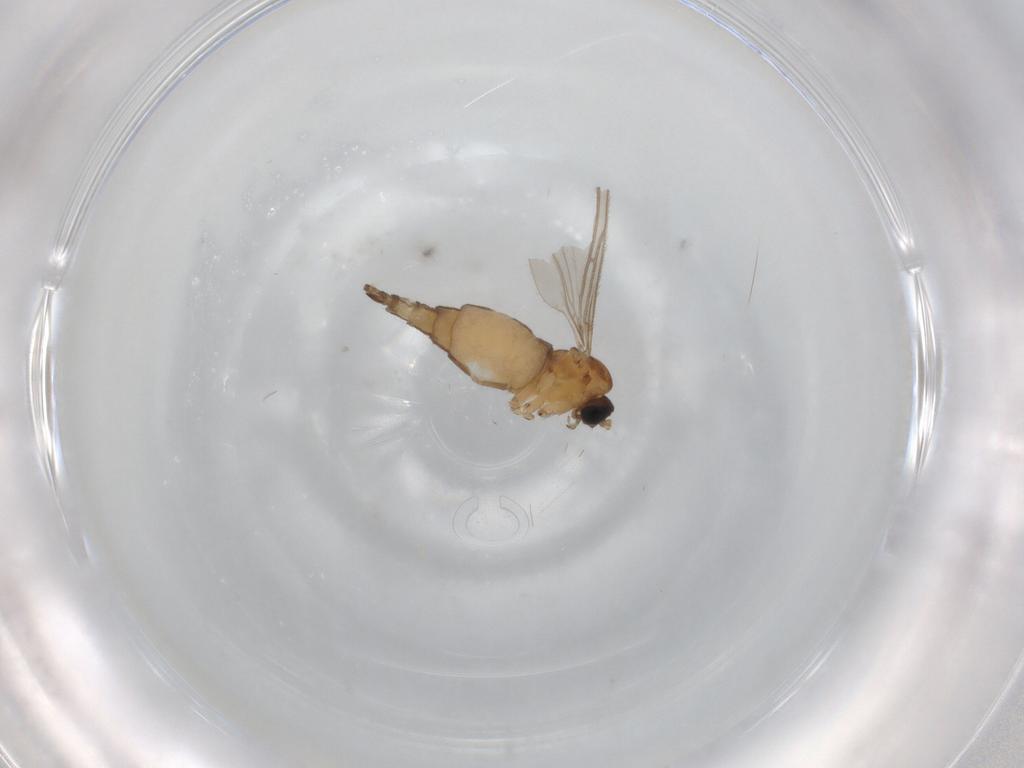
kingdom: Animalia
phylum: Arthropoda
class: Insecta
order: Diptera
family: Sciaridae
